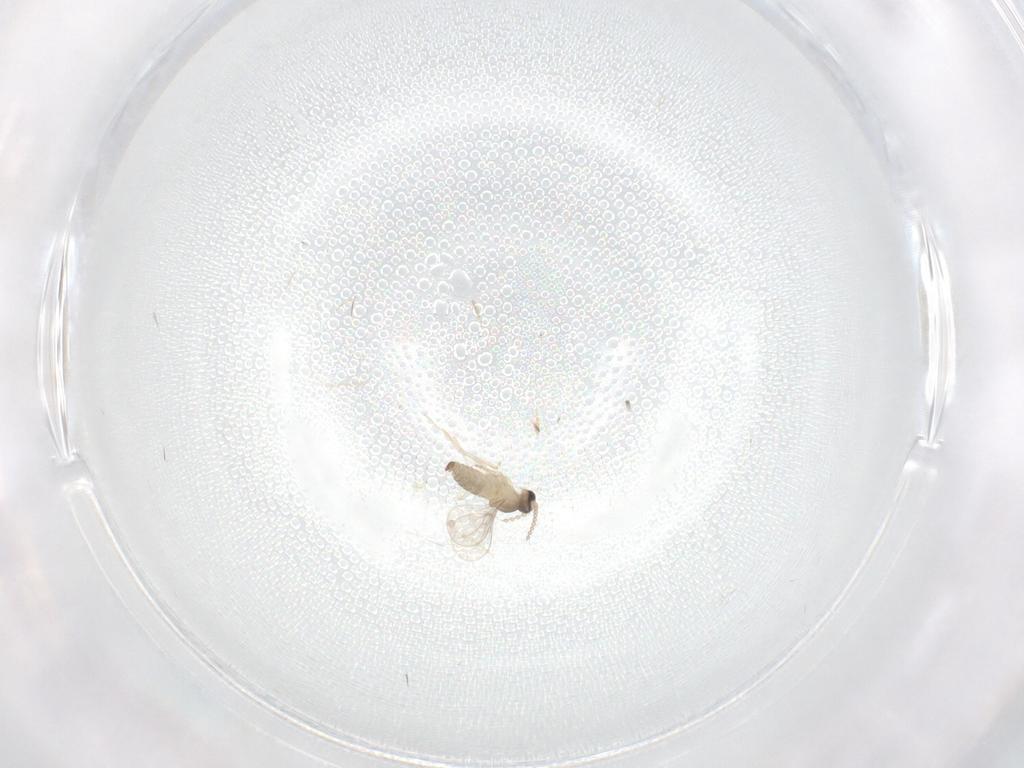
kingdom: Animalia
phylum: Arthropoda
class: Insecta
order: Diptera
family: Cecidomyiidae
